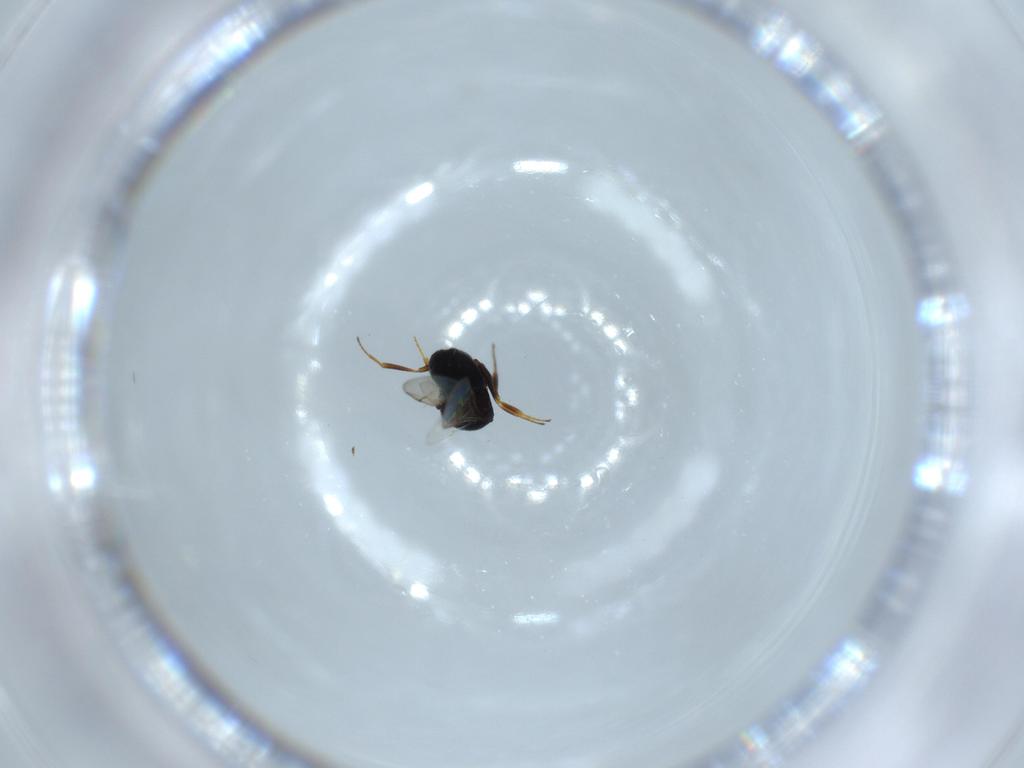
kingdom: Animalia
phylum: Arthropoda
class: Insecta
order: Hymenoptera
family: Scelionidae
